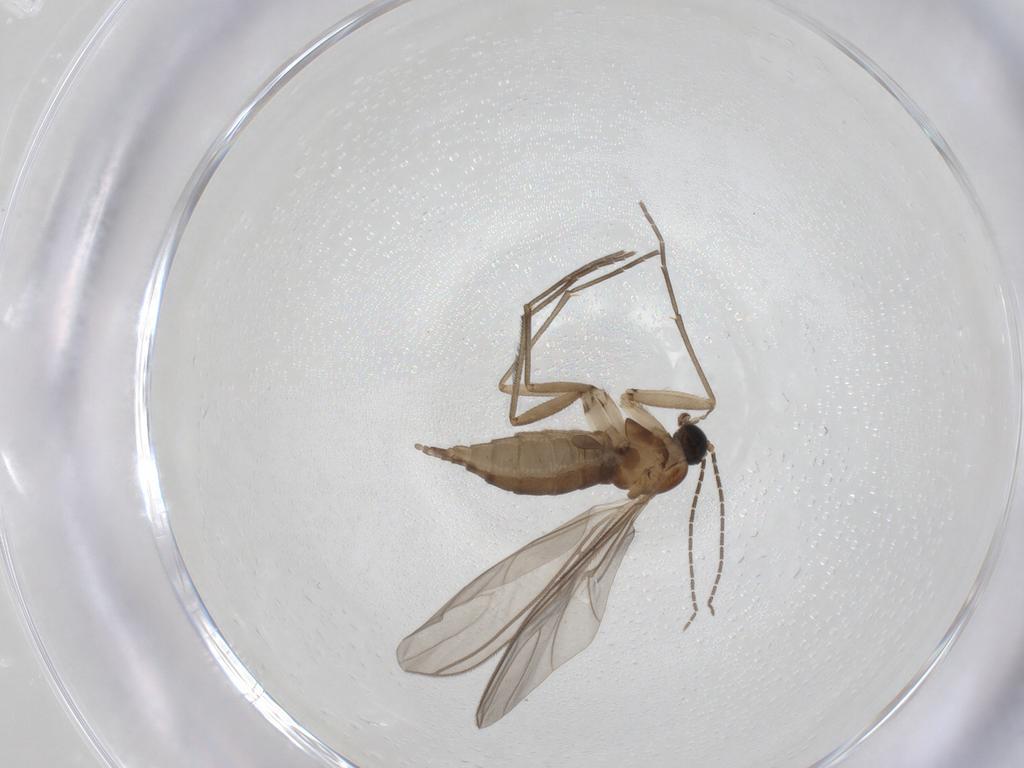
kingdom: Animalia
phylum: Arthropoda
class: Insecta
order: Diptera
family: Sciaridae
